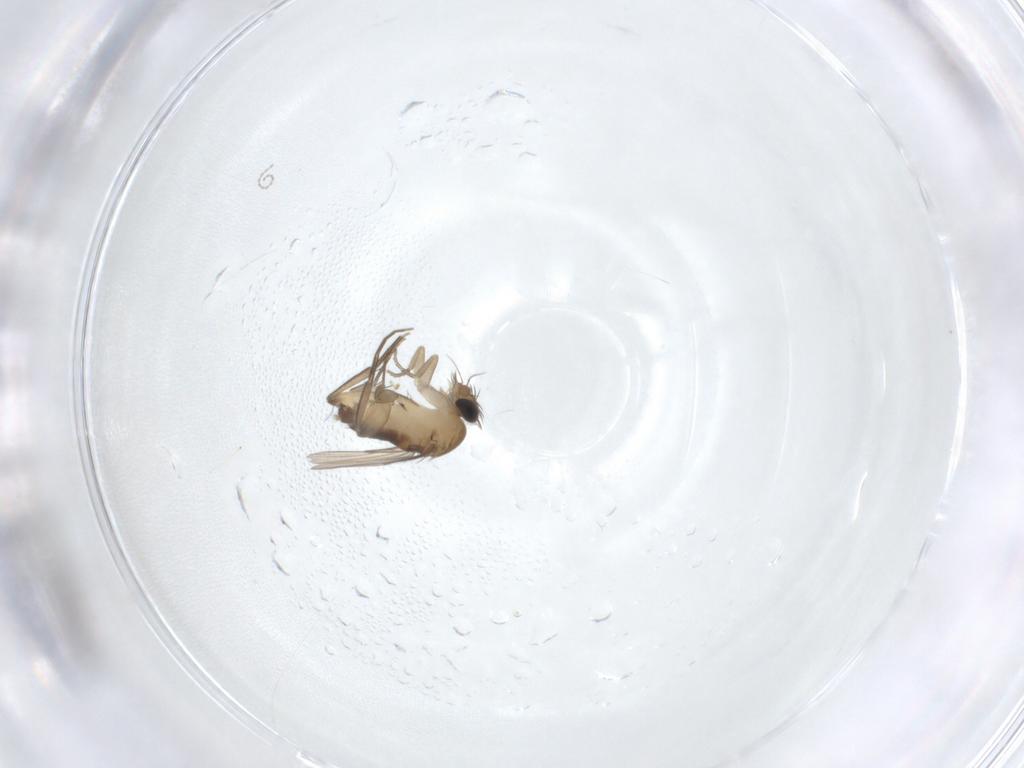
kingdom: Animalia
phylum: Arthropoda
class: Insecta
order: Diptera
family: Phoridae
